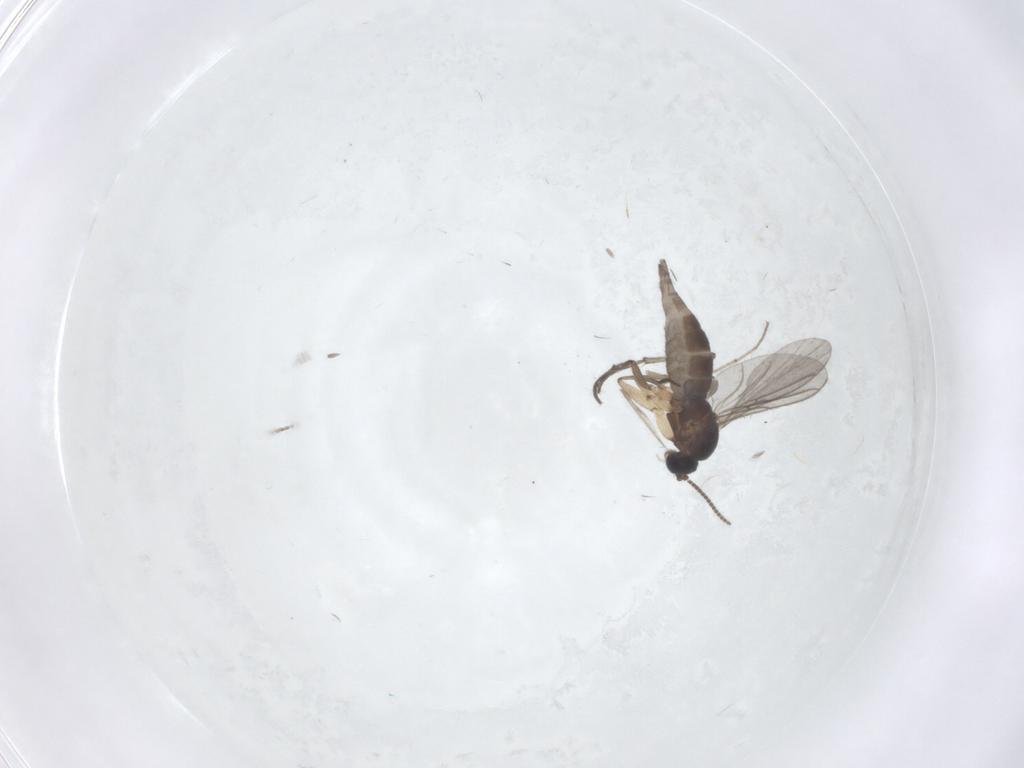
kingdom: Animalia
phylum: Arthropoda
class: Insecta
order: Diptera
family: Sciaridae
